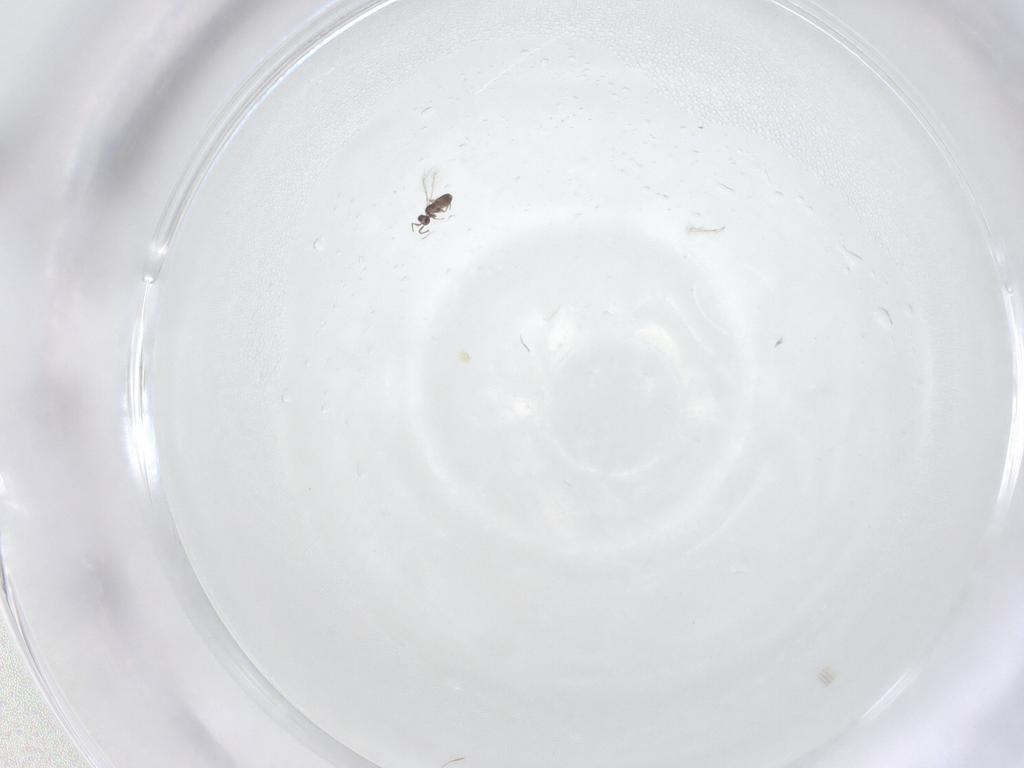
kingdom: Animalia
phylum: Arthropoda
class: Insecta
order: Hymenoptera
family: Mymaridae
